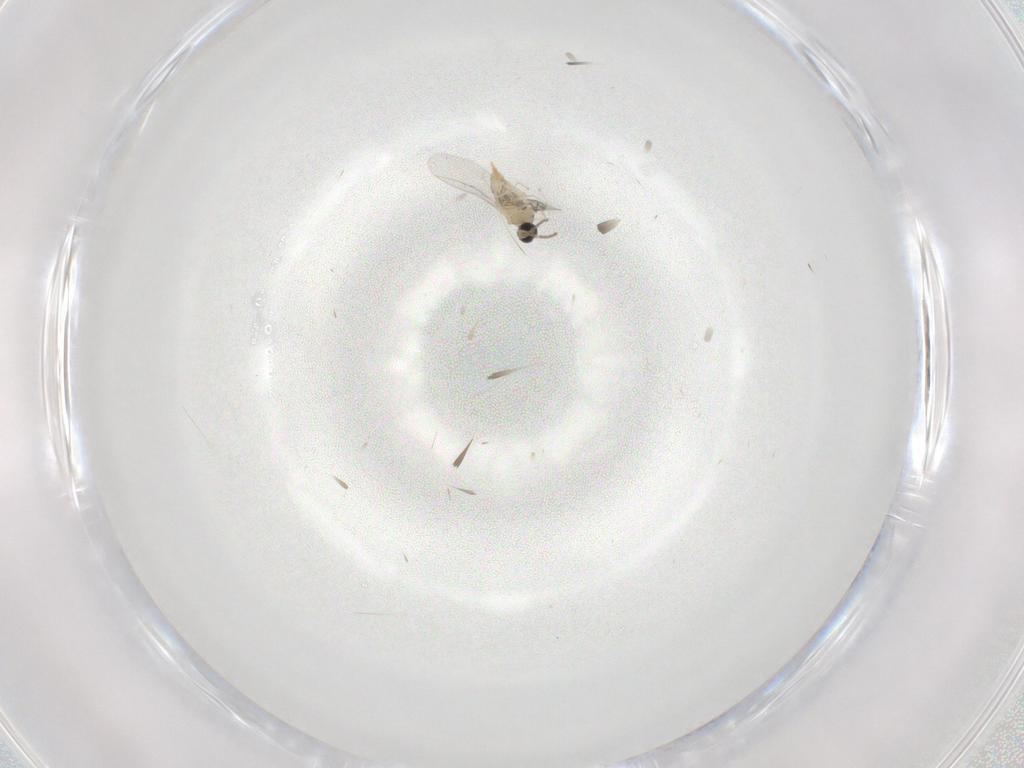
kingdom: Animalia
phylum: Arthropoda
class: Insecta
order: Diptera
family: Cecidomyiidae
